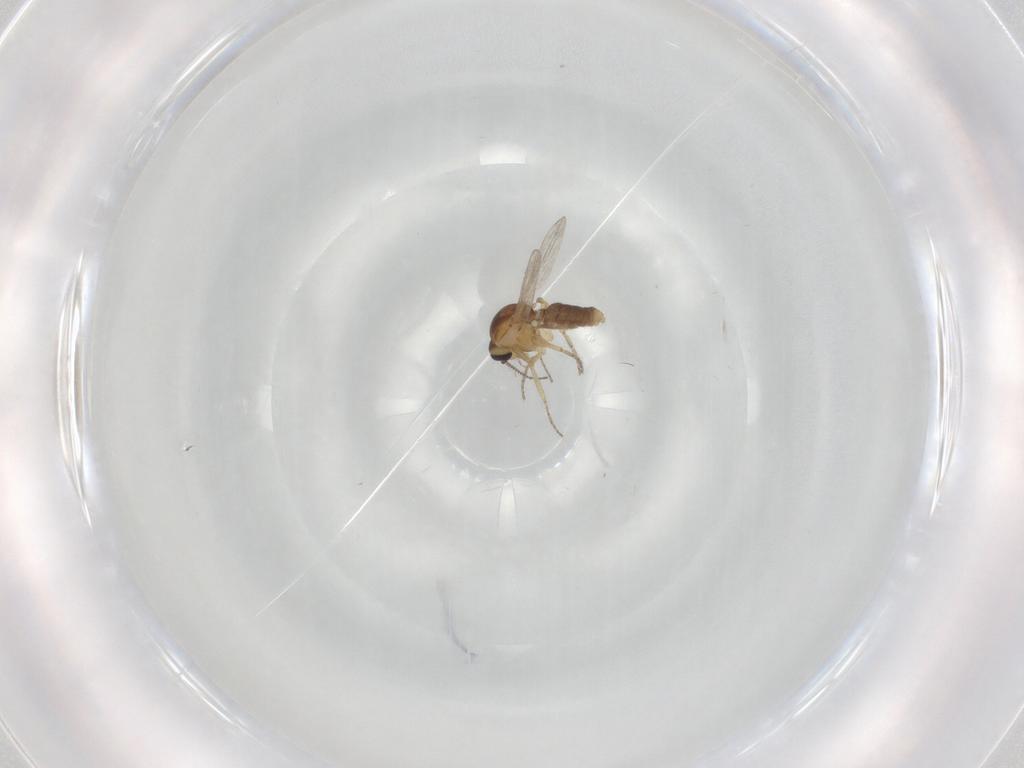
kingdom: Animalia
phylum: Arthropoda
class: Insecta
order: Diptera
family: Ceratopogonidae
